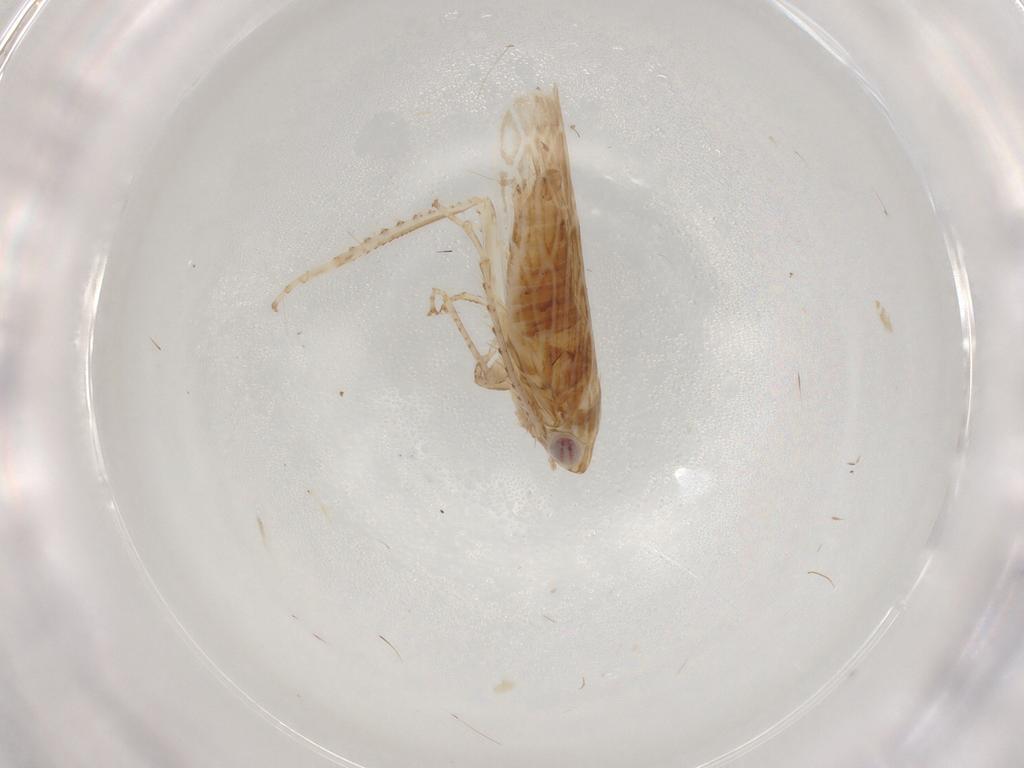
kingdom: Animalia
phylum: Arthropoda
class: Insecta
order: Hemiptera
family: Cicadellidae
